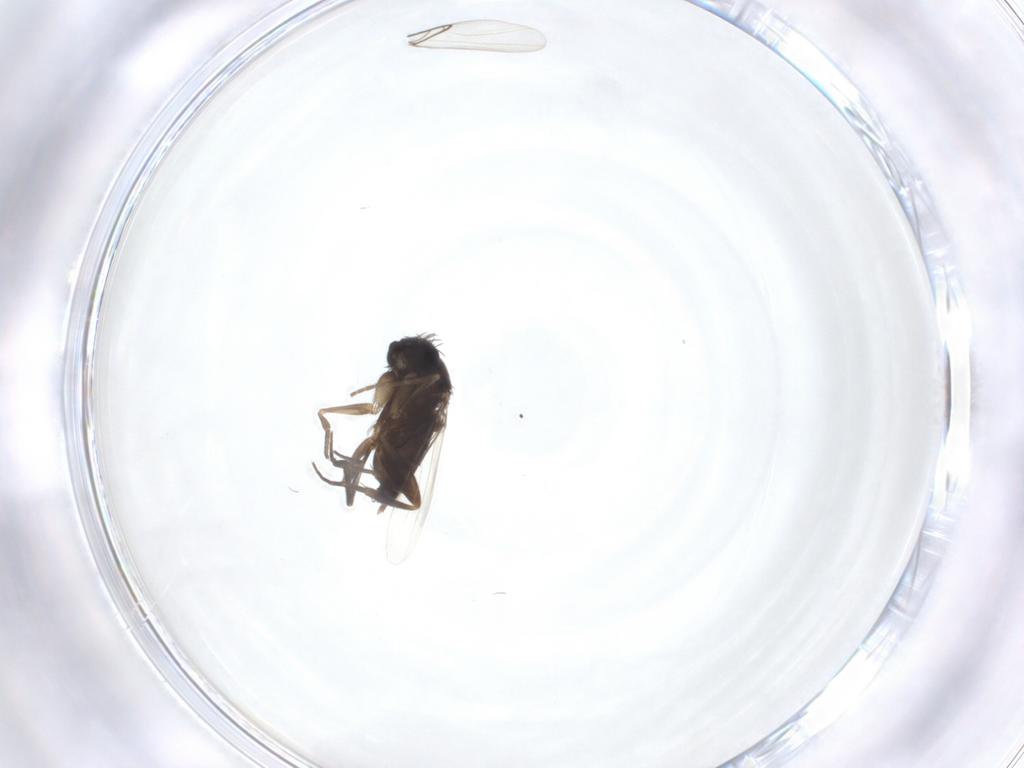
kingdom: Animalia
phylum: Arthropoda
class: Insecta
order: Diptera
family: Phoridae
